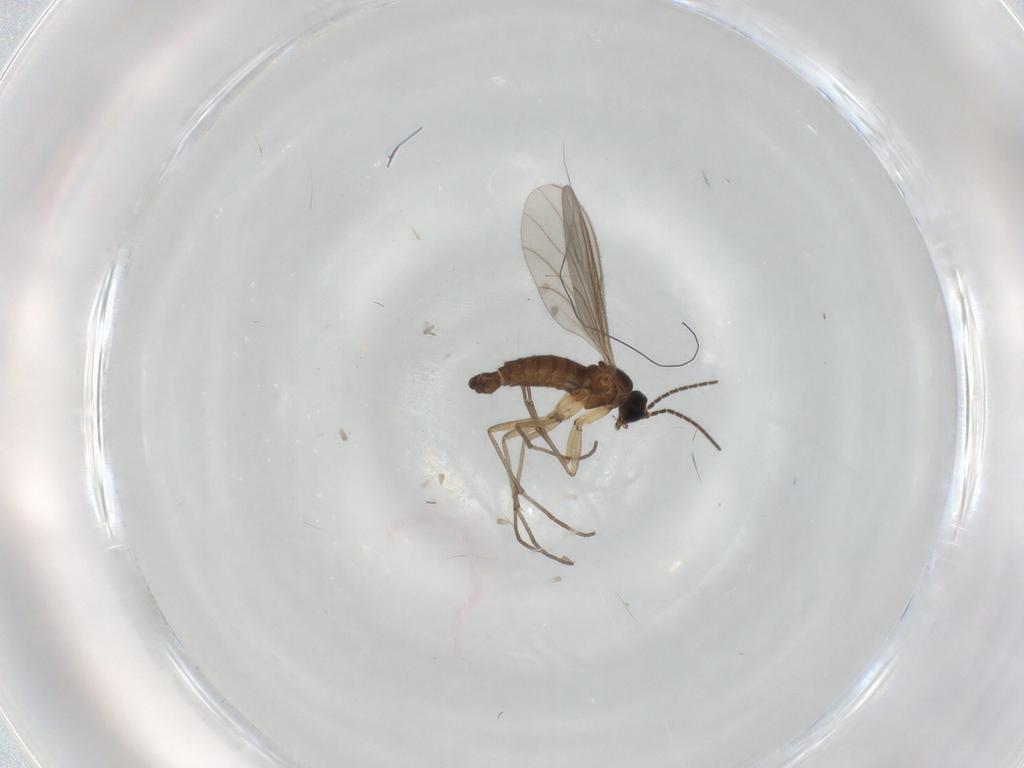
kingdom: Animalia
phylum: Arthropoda
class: Insecta
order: Diptera
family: Sciaridae
